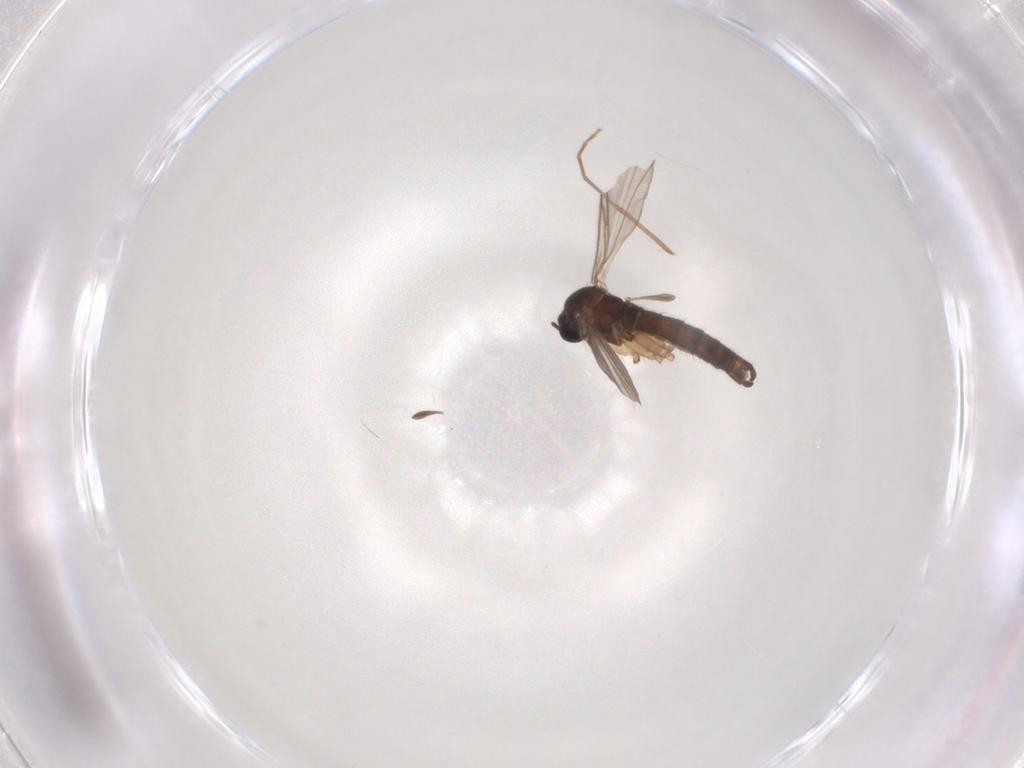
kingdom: Animalia
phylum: Arthropoda
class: Insecta
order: Diptera
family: Sciaridae
